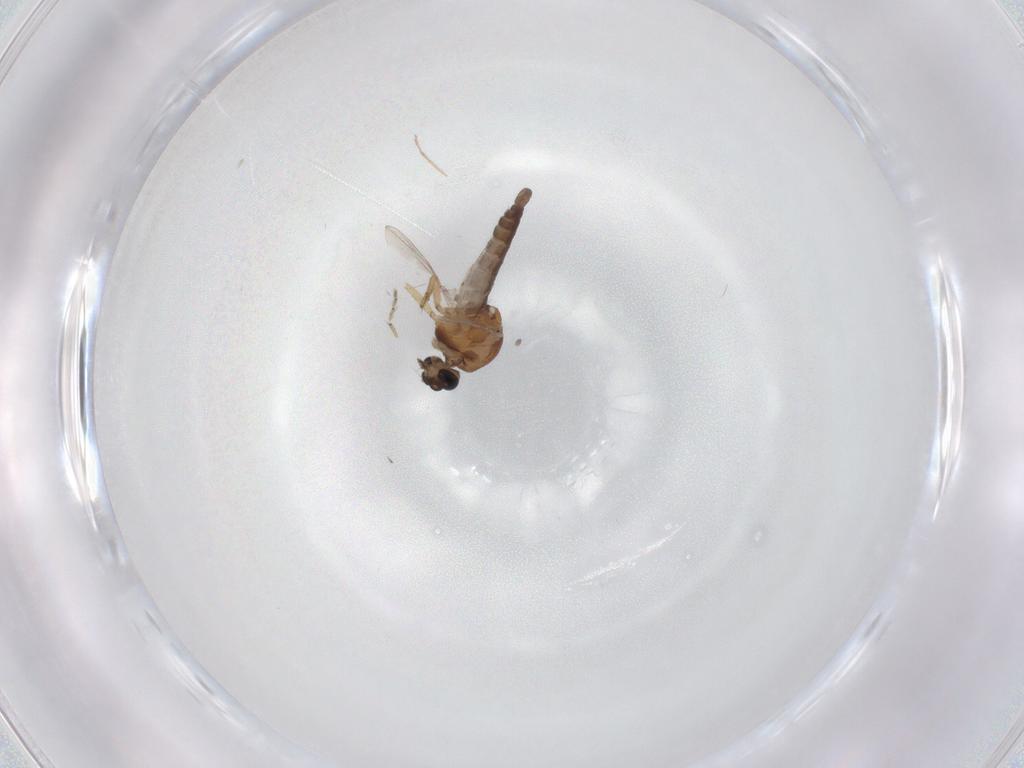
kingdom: Animalia
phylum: Arthropoda
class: Insecta
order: Diptera
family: Ceratopogonidae
